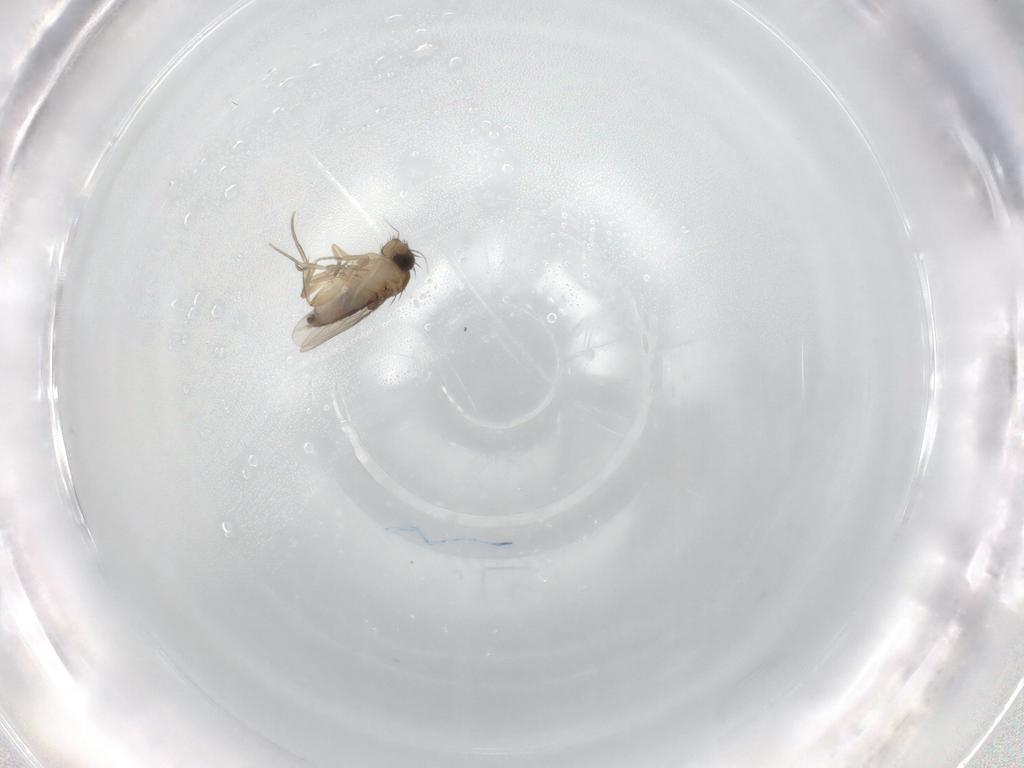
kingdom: Animalia
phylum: Arthropoda
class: Insecta
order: Diptera
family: Phoridae
